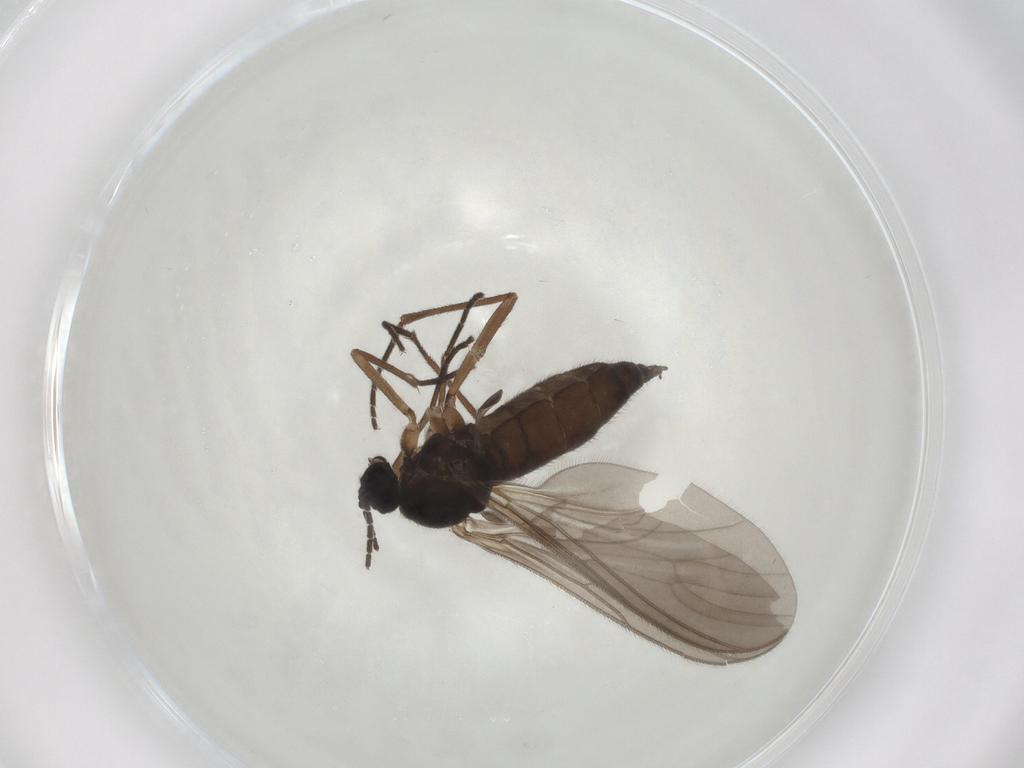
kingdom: Animalia
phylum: Arthropoda
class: Insecta
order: Diptera
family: Sciaridae
